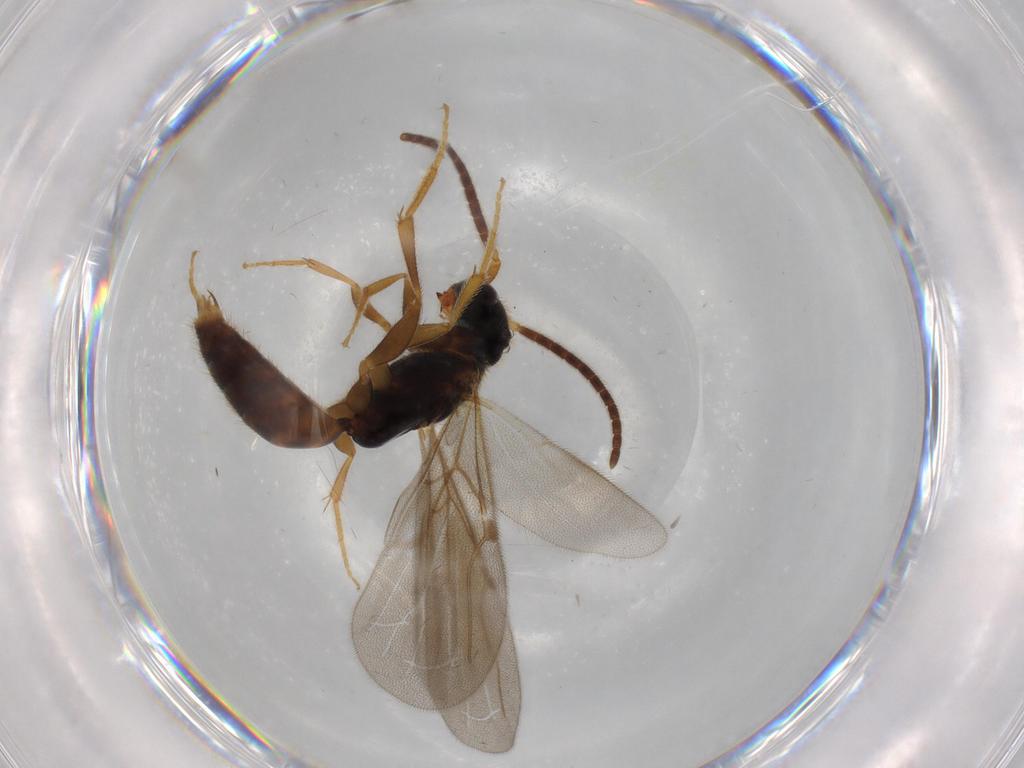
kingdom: Animalia
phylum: Arthropoda
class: Insecta
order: Hymenoptera
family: Bethylidae
